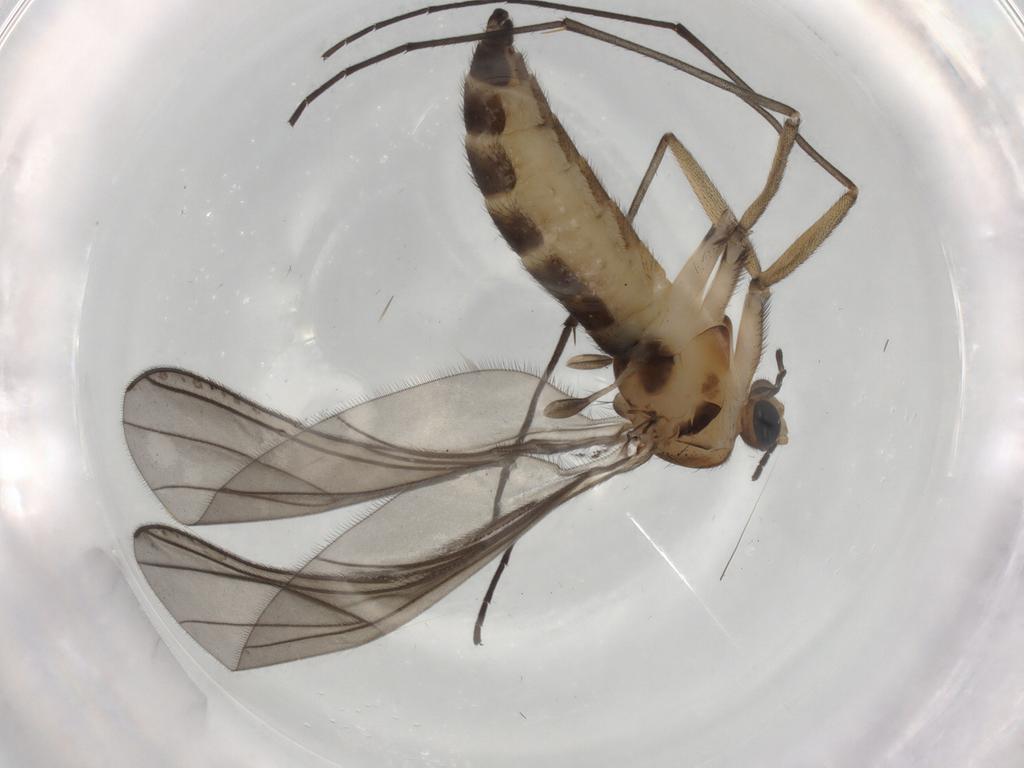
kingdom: Animalia
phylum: Arthropoda
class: Insecta
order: Diptera
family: Sciaridae
